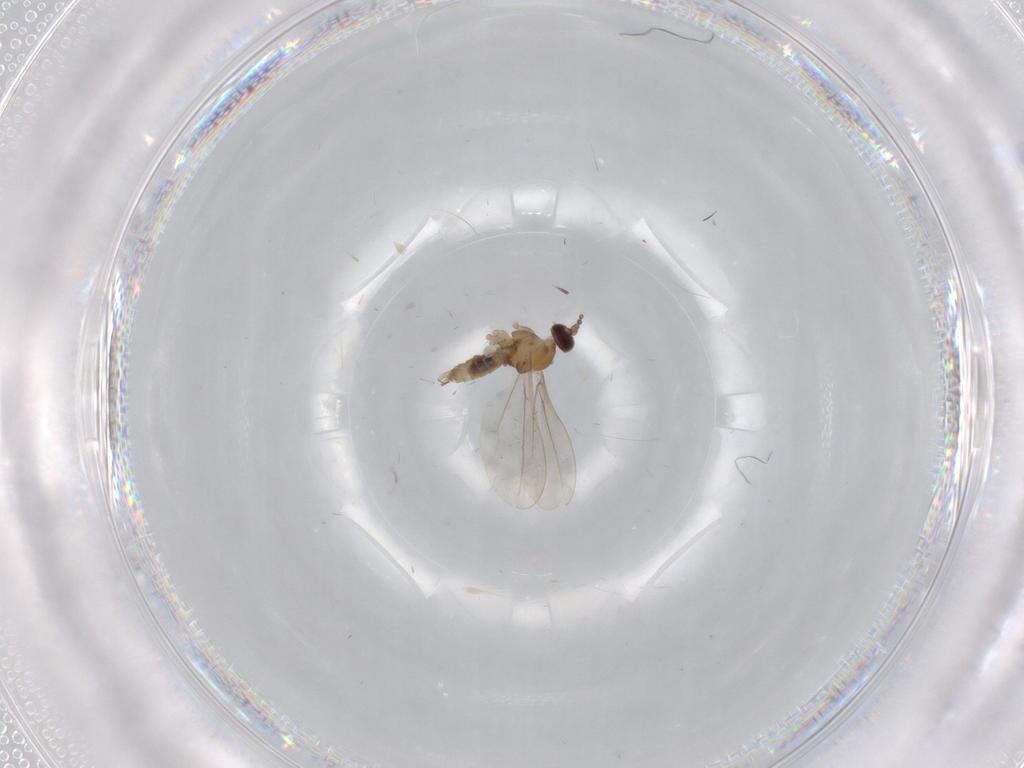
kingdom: Animalia
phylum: Arthropoda
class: Insecta
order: Diptera
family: Cecidomyiidae
